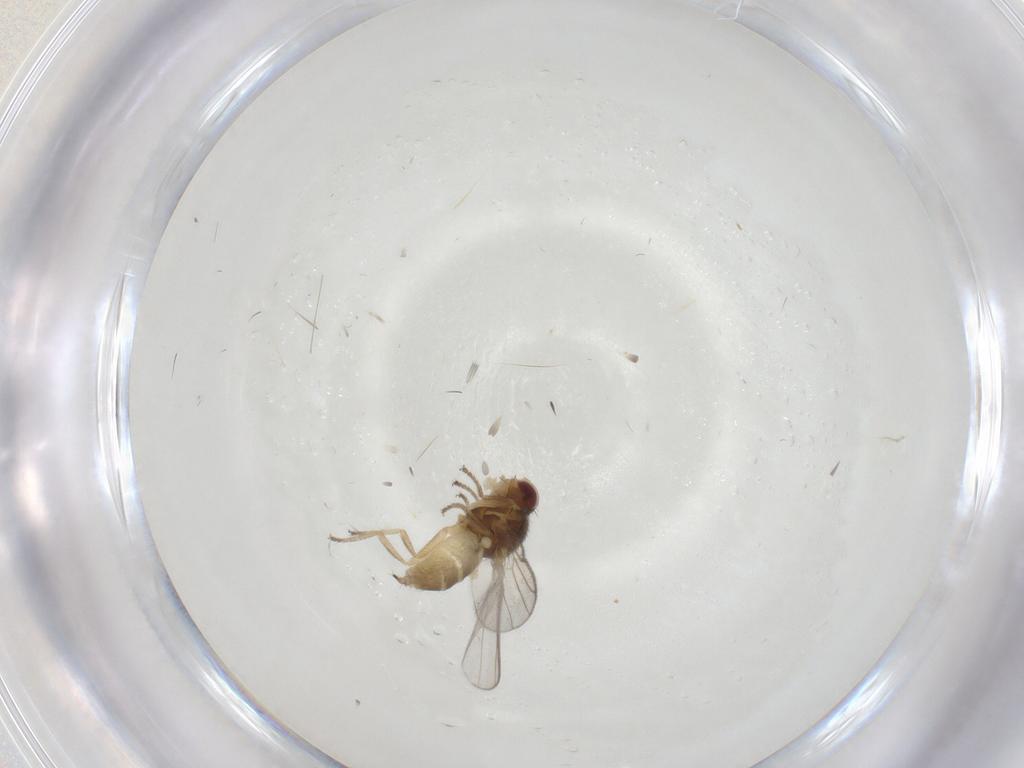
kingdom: Animalia
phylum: Arthropoda
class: Insecta
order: Diptera
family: Chloropidae
